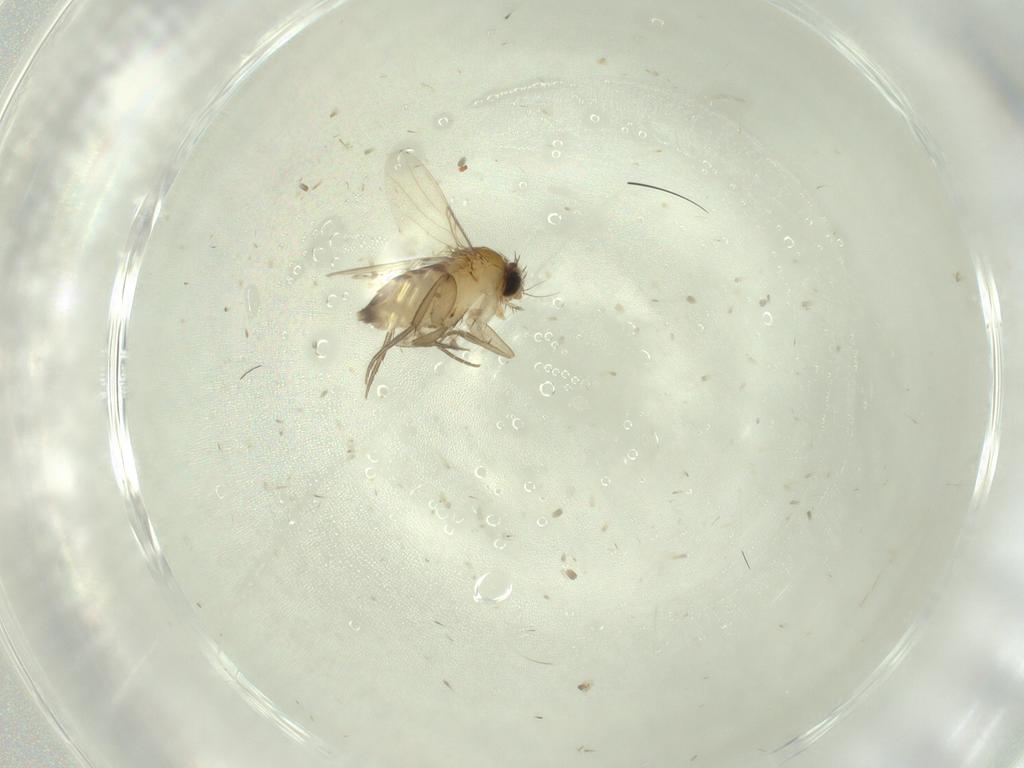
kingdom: Animalia
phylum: Arthropoda
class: Insecta
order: Diptera
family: Phoridae
